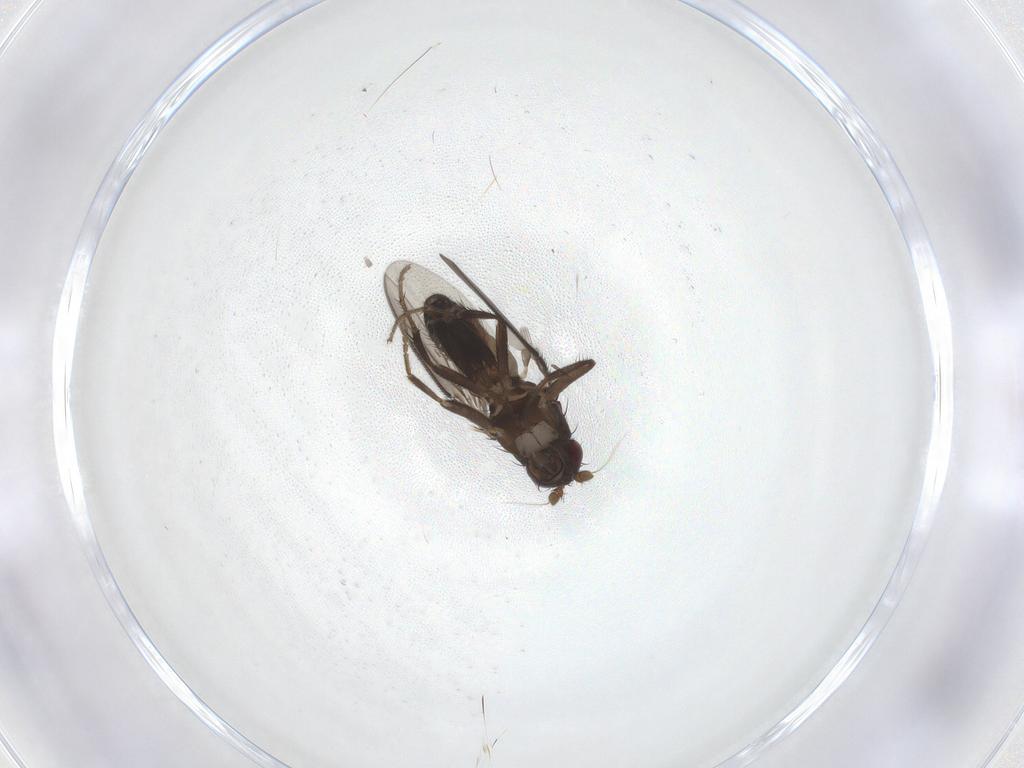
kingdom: Animalia
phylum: Arthropoda
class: Insecta
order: Diptera
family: Sphaeroceridae
